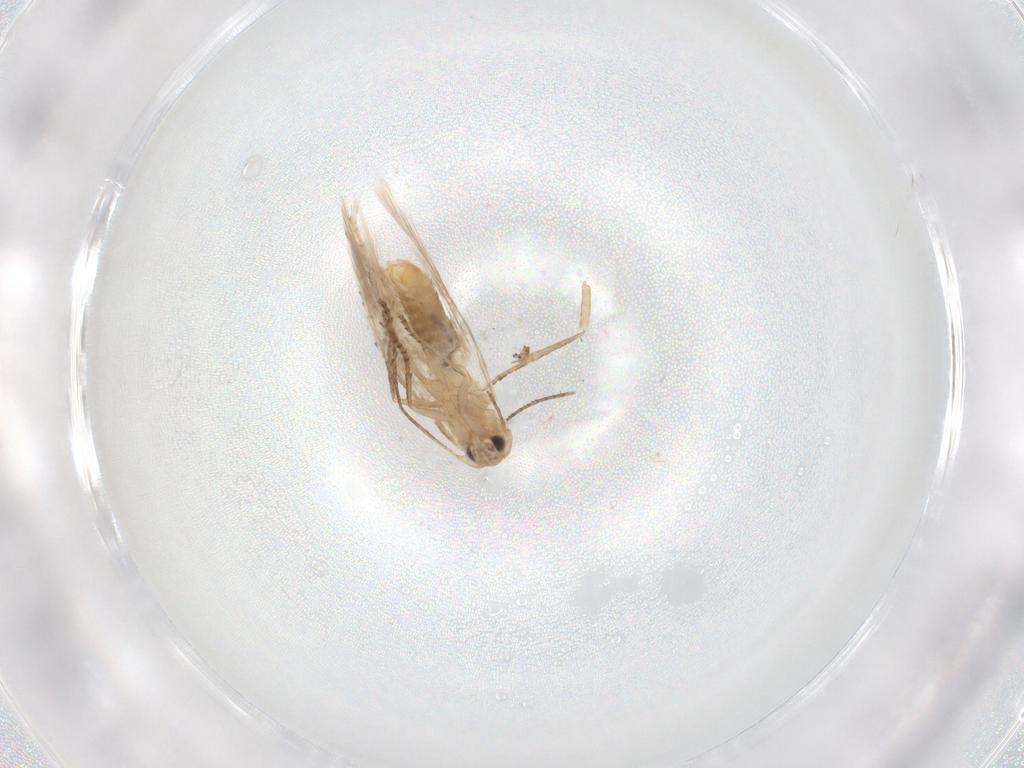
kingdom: Animalia
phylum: Arthropoda
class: Insecta
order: Lepidoptera
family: Bucculatricidae
